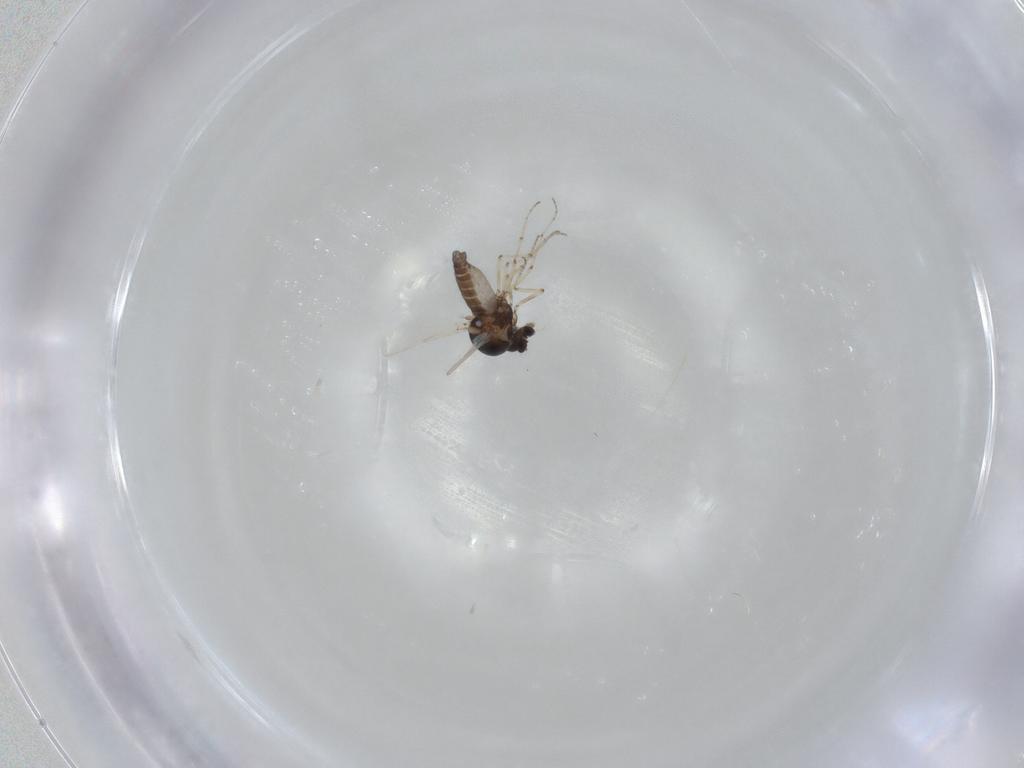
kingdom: Animalia
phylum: Arthropoda
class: Insecta
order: Diptera
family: Ceratopogonidae
